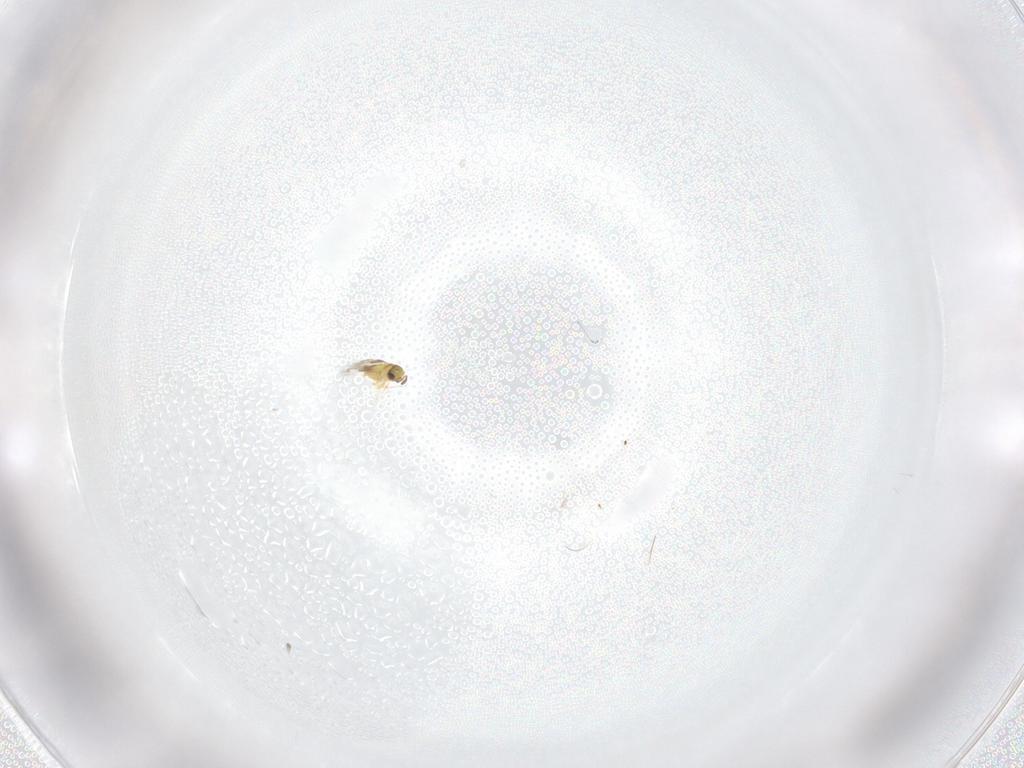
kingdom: Animalia
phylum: Arthropoda
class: Insecta
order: Hymenoptera
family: Signiphoridae
